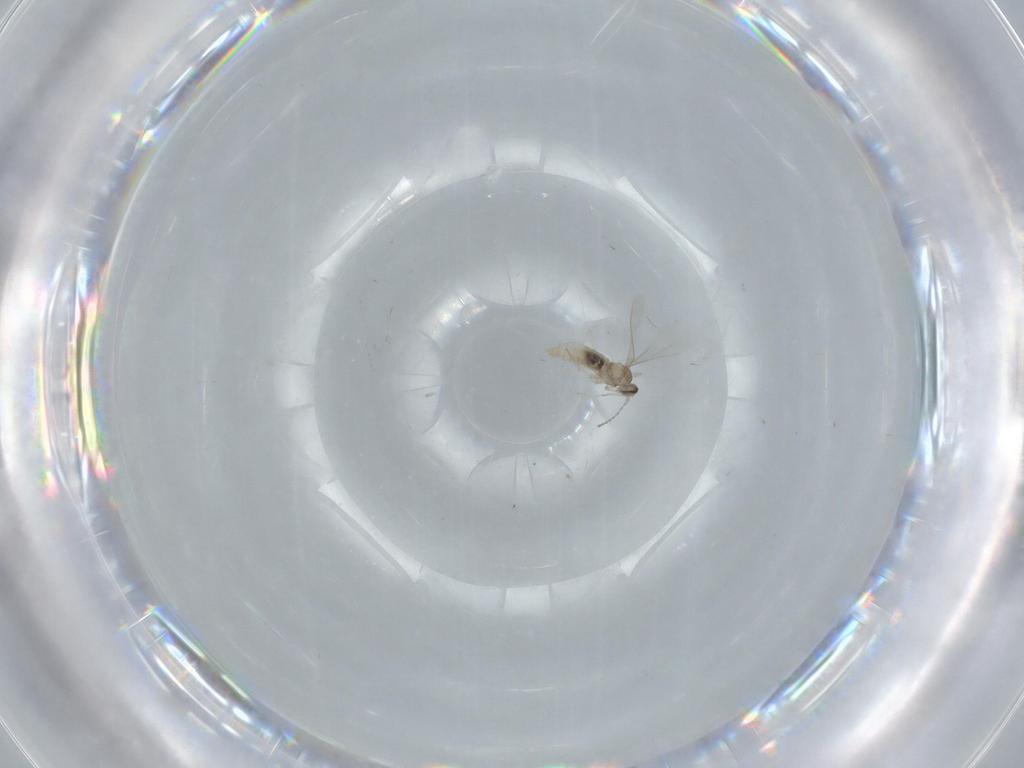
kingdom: Animalia
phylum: Arthropoda
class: Insecta
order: Diptera
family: Cecidomyiidae
